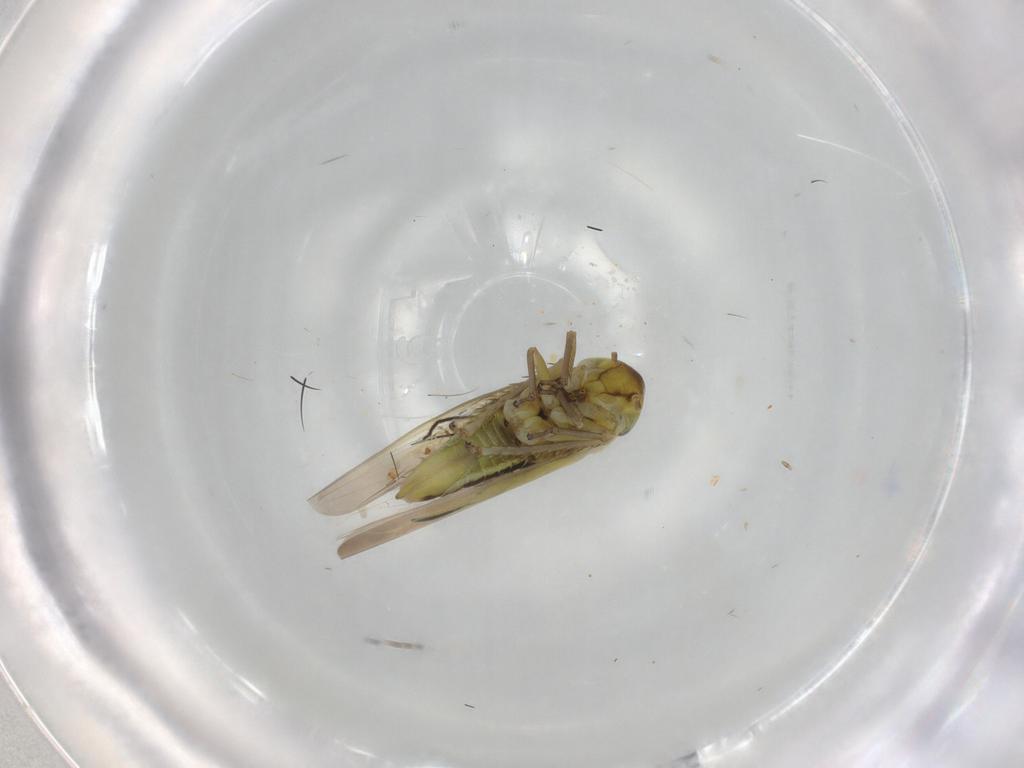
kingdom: Animalia
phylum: Arthropoda
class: Insecta
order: Hemiptera
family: Cicadellidae
